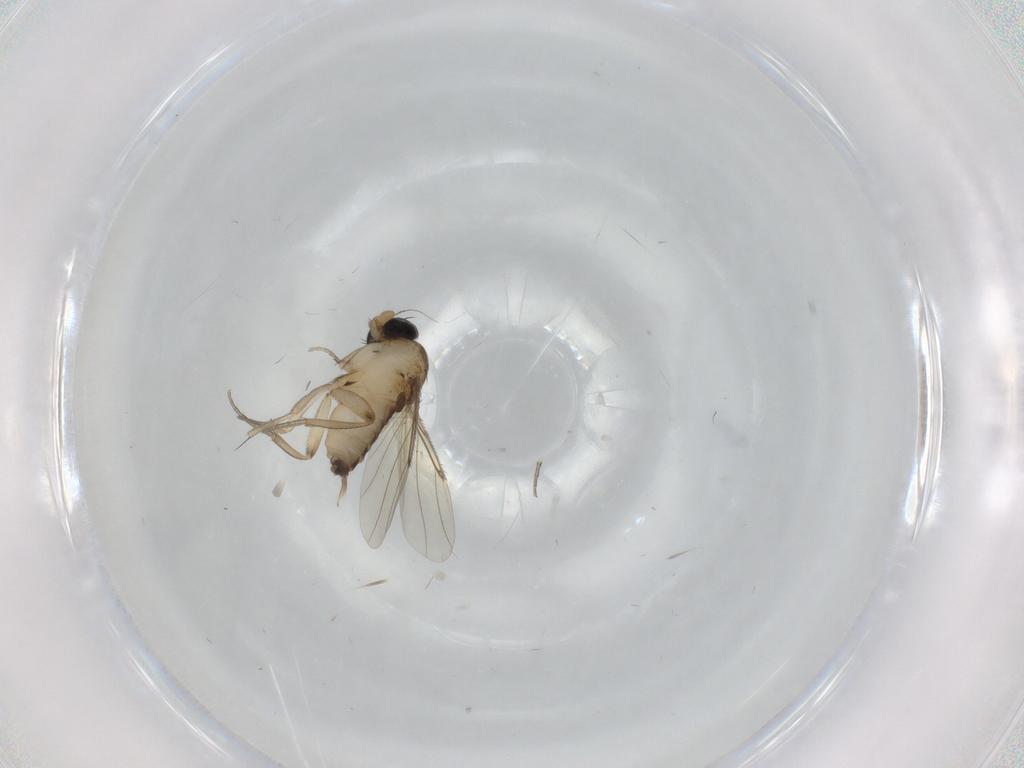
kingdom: Animalia
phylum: Arthropoda
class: Insecta
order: Diptera
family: Phoridae
